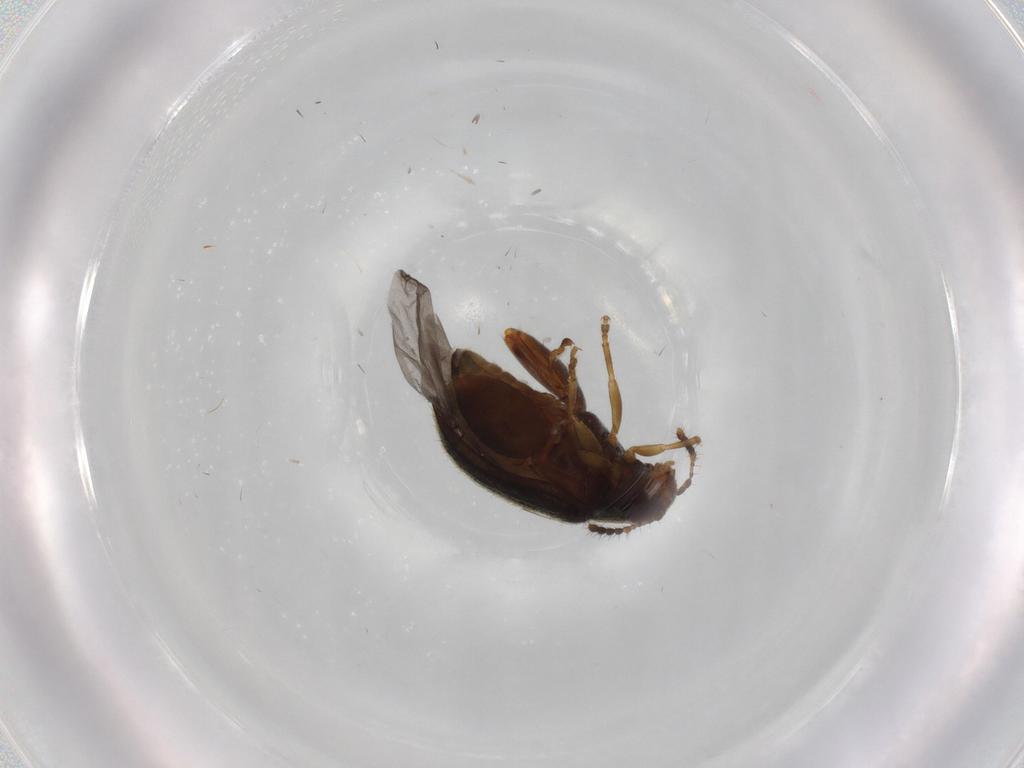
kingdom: Animalia
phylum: Arthropoda
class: Insecta
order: Coleoptera
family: Chrysomelidae
